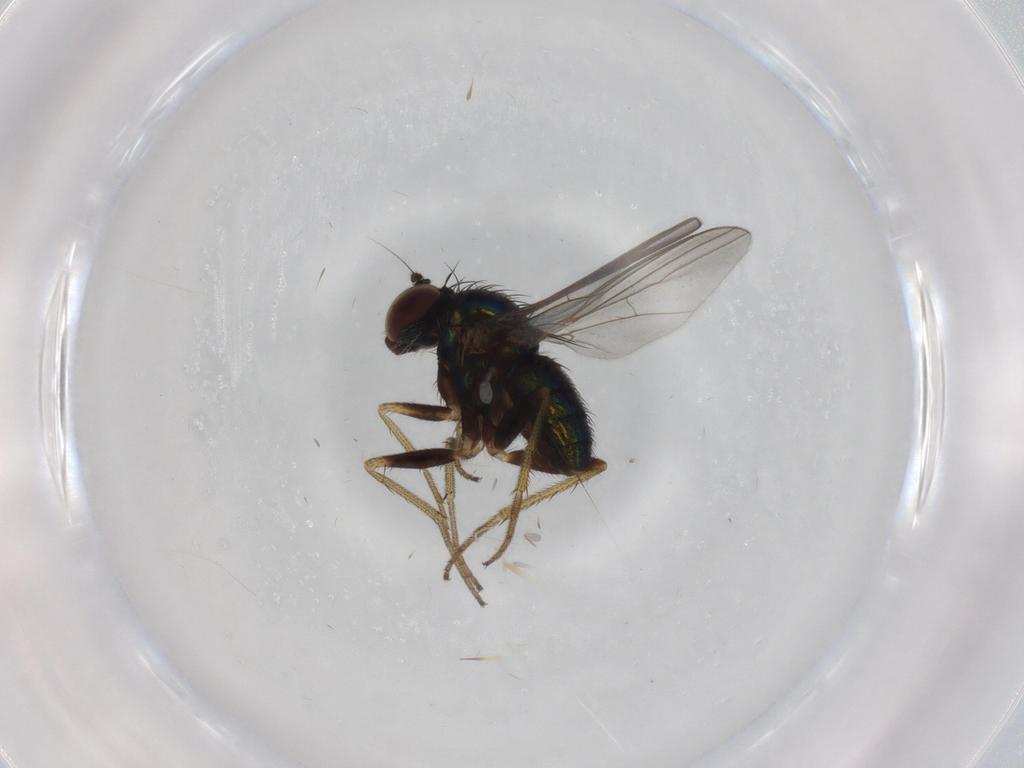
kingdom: Animalia
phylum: Arthropoda
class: Insecta
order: Diptera
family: Dolichopodidae
